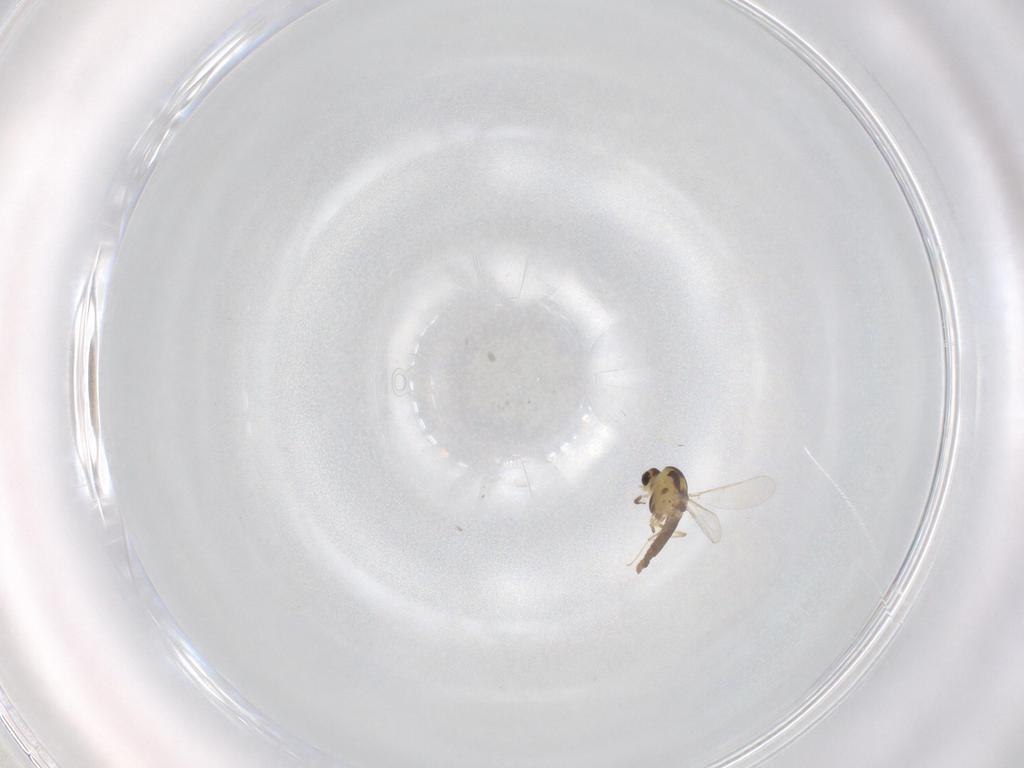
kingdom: Animalia
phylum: Arthropoda
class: Insecta
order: Diptera
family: Chironomidae
